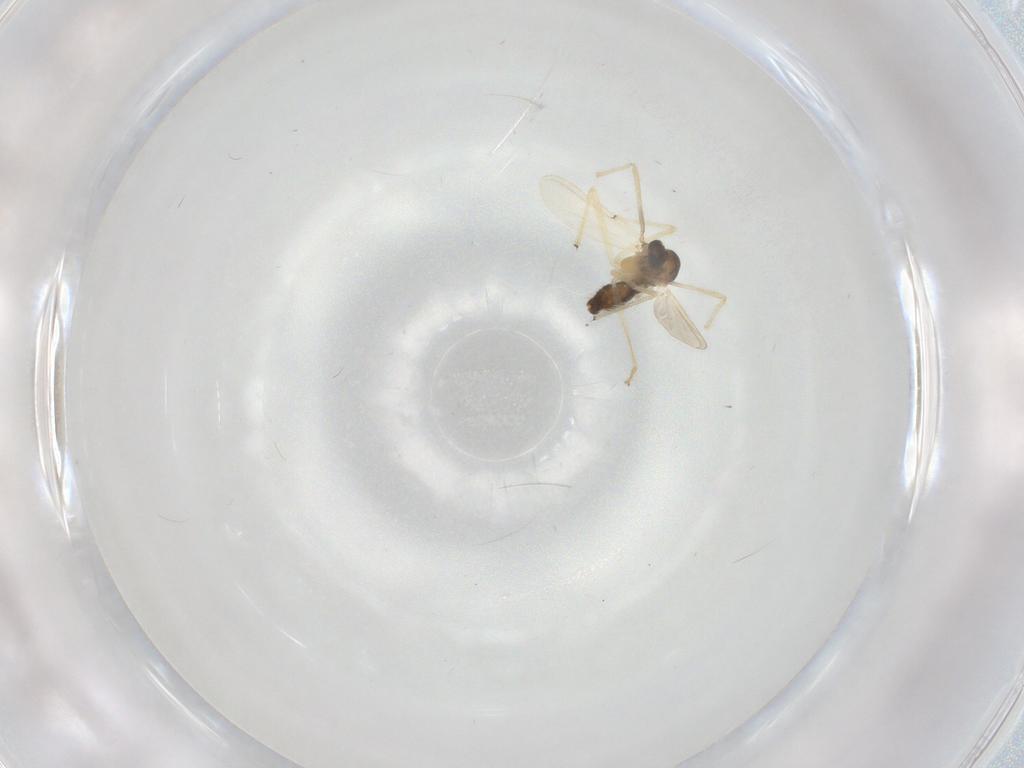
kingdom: Animalia
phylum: Arthropoda
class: Insecta
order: Diptera
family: Chironomidae
